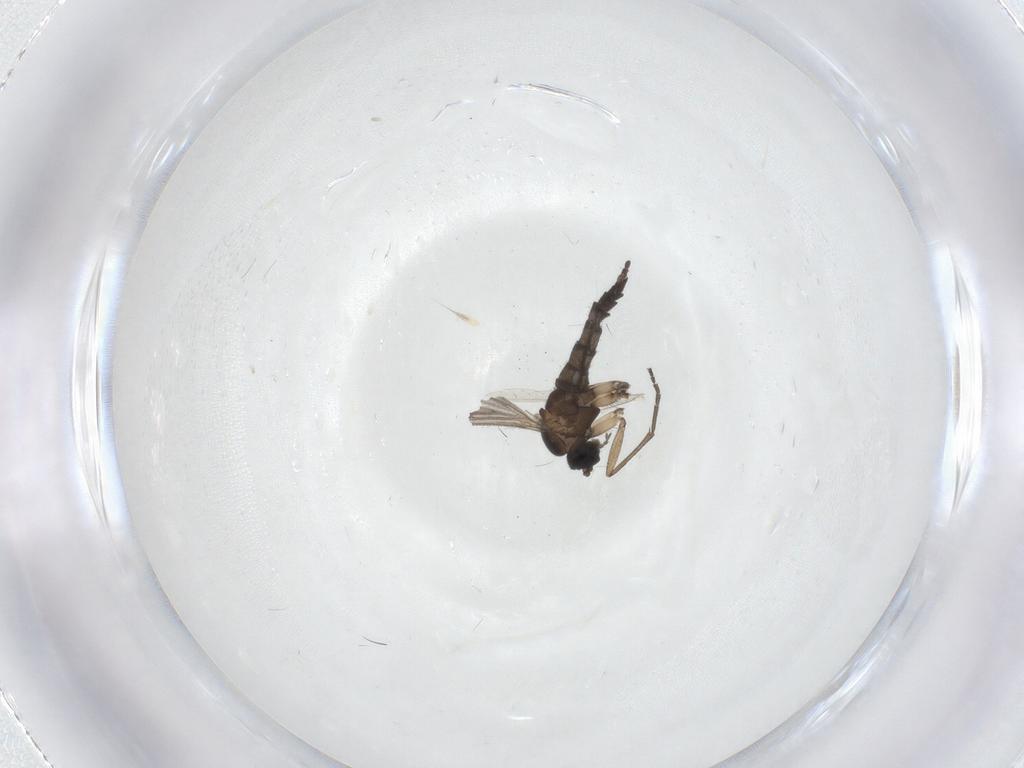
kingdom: Animalia
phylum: Arthropoda
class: Insecta
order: Diptera
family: Sciaridae
